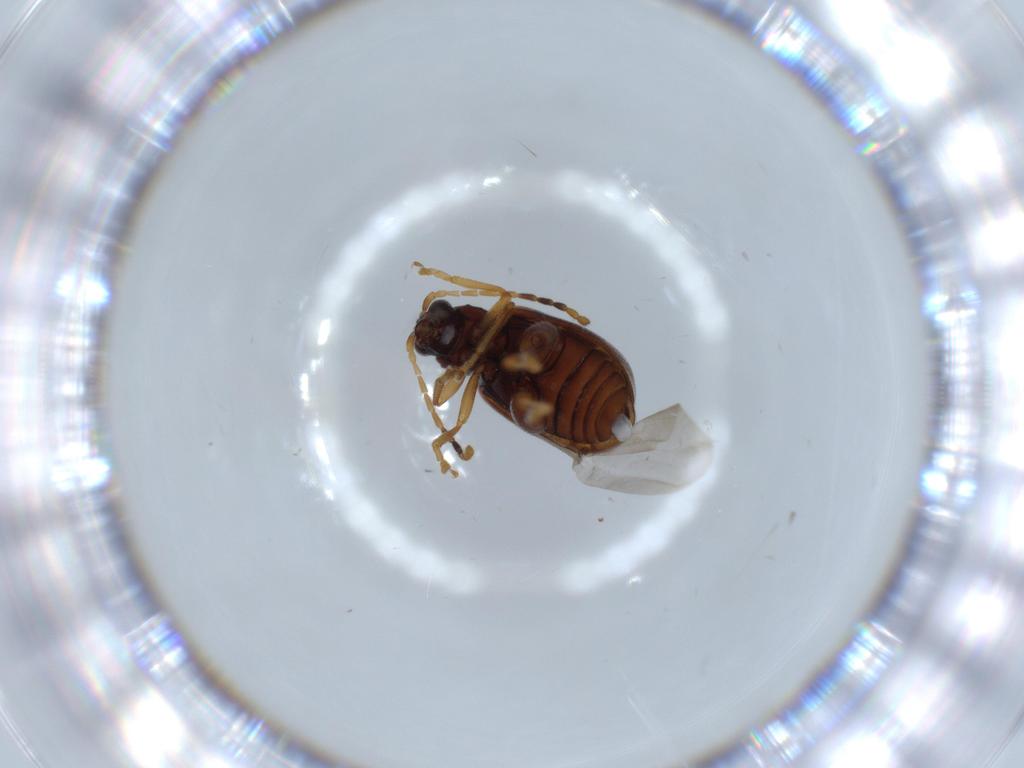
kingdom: Animalia
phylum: Arthropoda
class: Insecta
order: Coleoptera
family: Chrysomelidae
